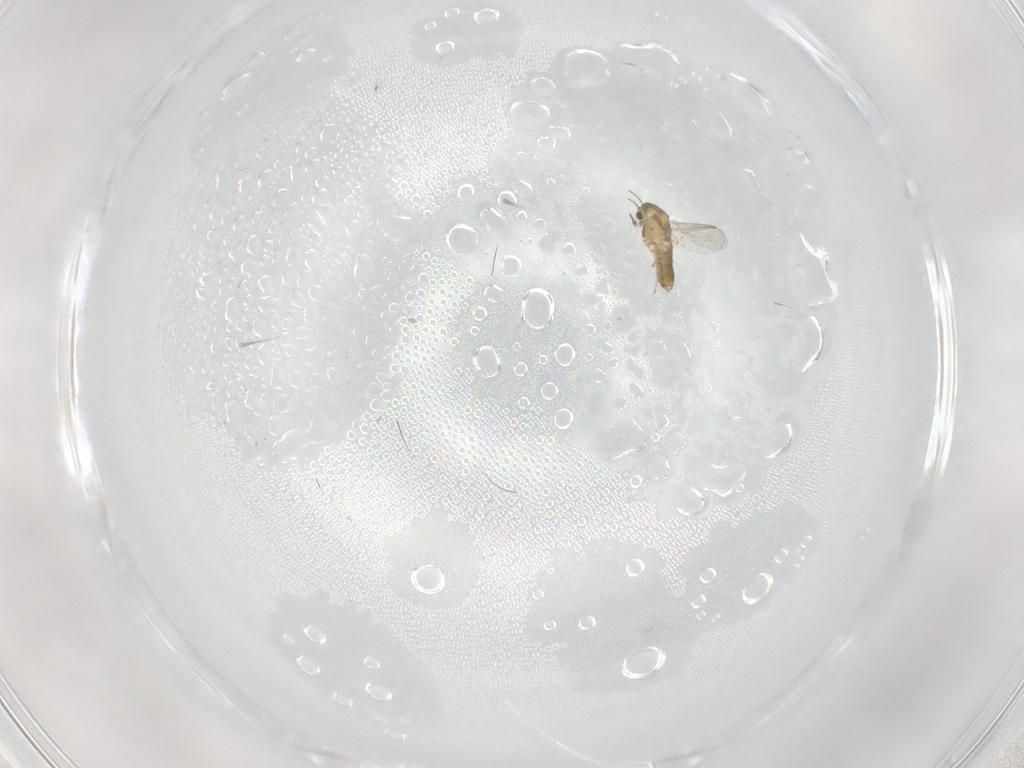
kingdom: Animalia
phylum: Arthropoda
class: Insecta
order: Diptera
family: Chironomidae
